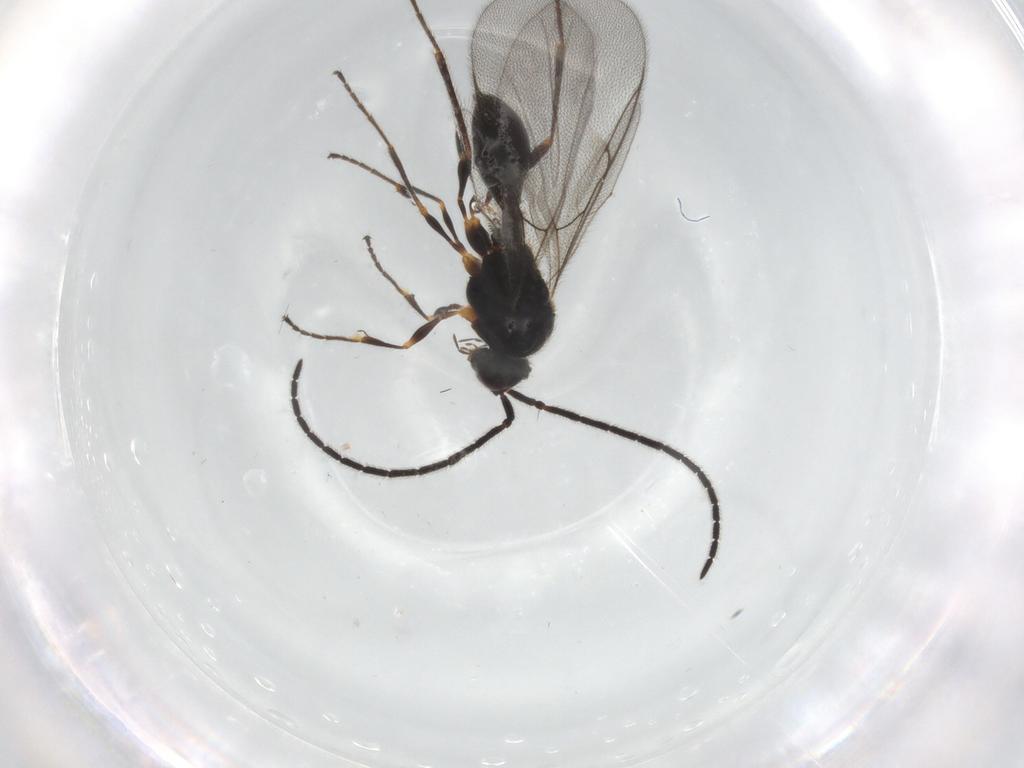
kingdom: Animalia
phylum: Arthropoda
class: Insecta
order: Hymenoptera
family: Diapriidae
